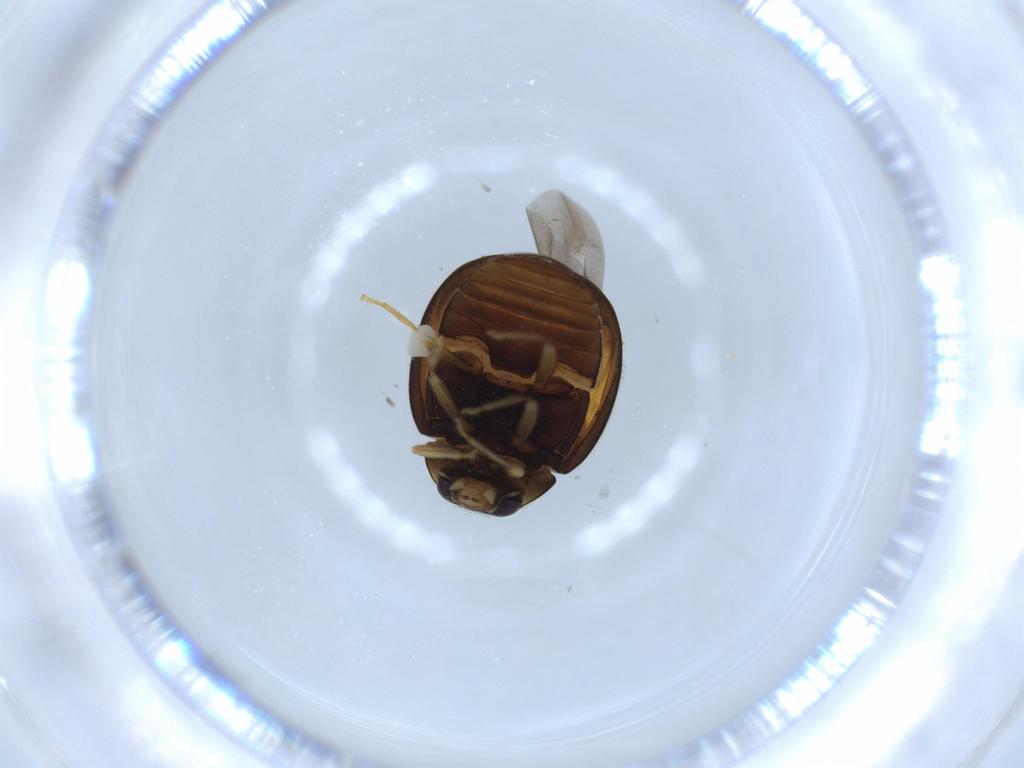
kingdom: Animalia
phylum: Arthropoda
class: Insecta
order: Coleoptera
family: Coccinellidae
